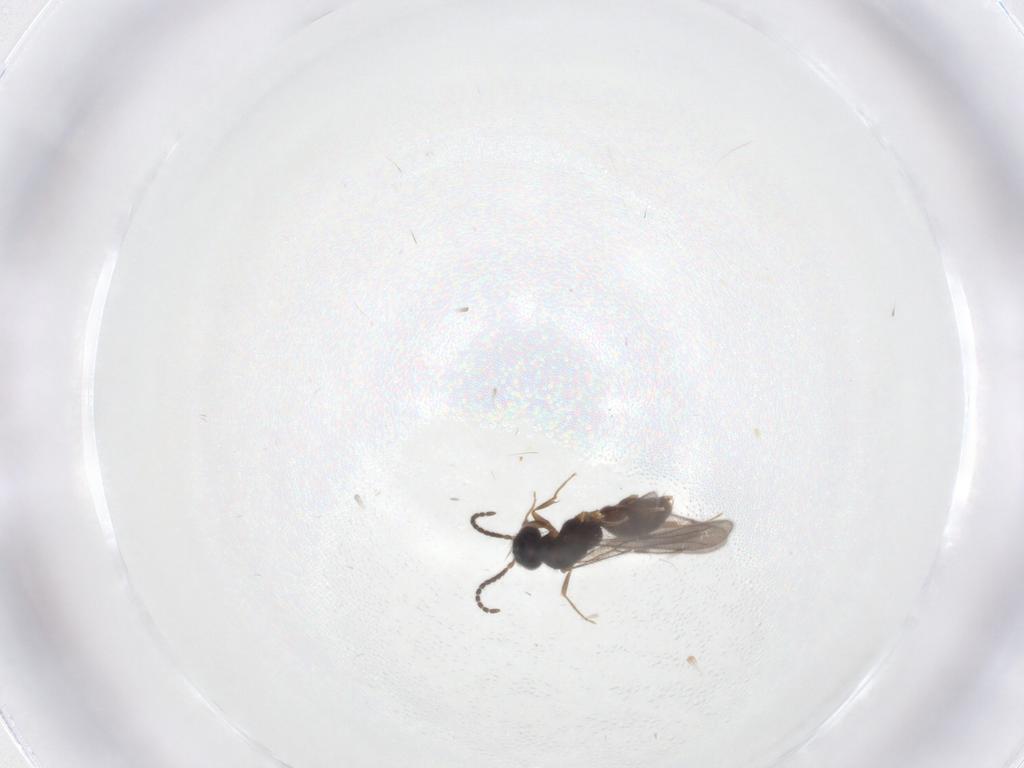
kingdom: Animalia
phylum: Arthropoda
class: Insecta
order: Hymenoptera
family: Bethylidae
